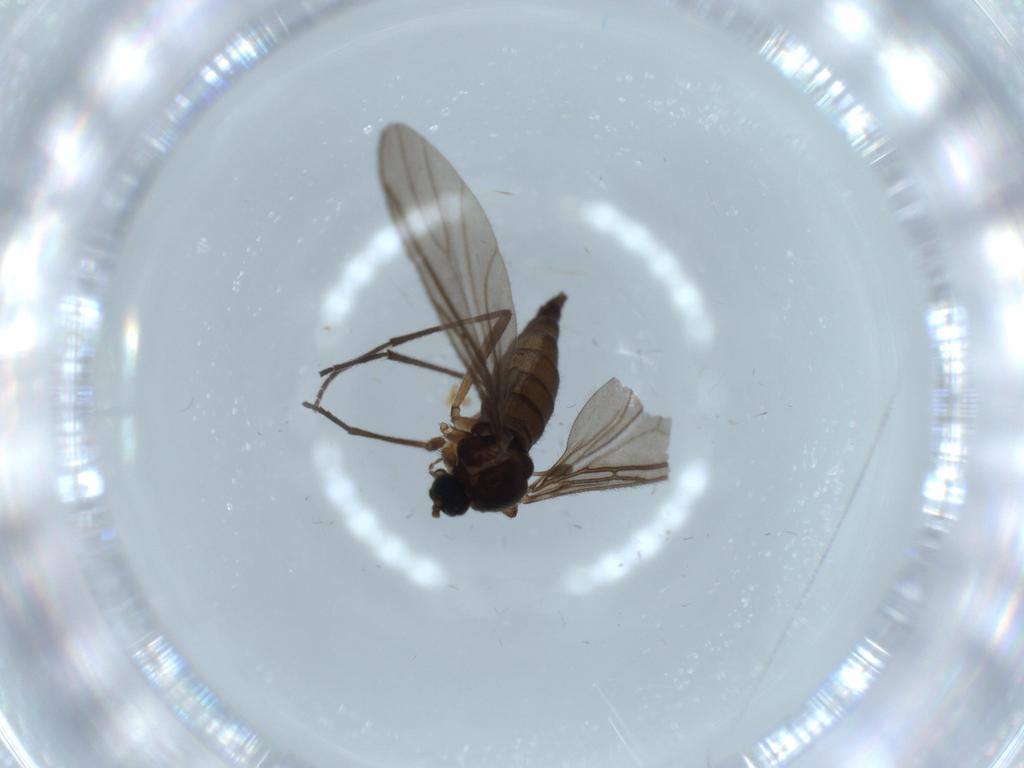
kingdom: Animalia
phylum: Arthropoda
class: Insecta
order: Diptera
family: Sciaridae
